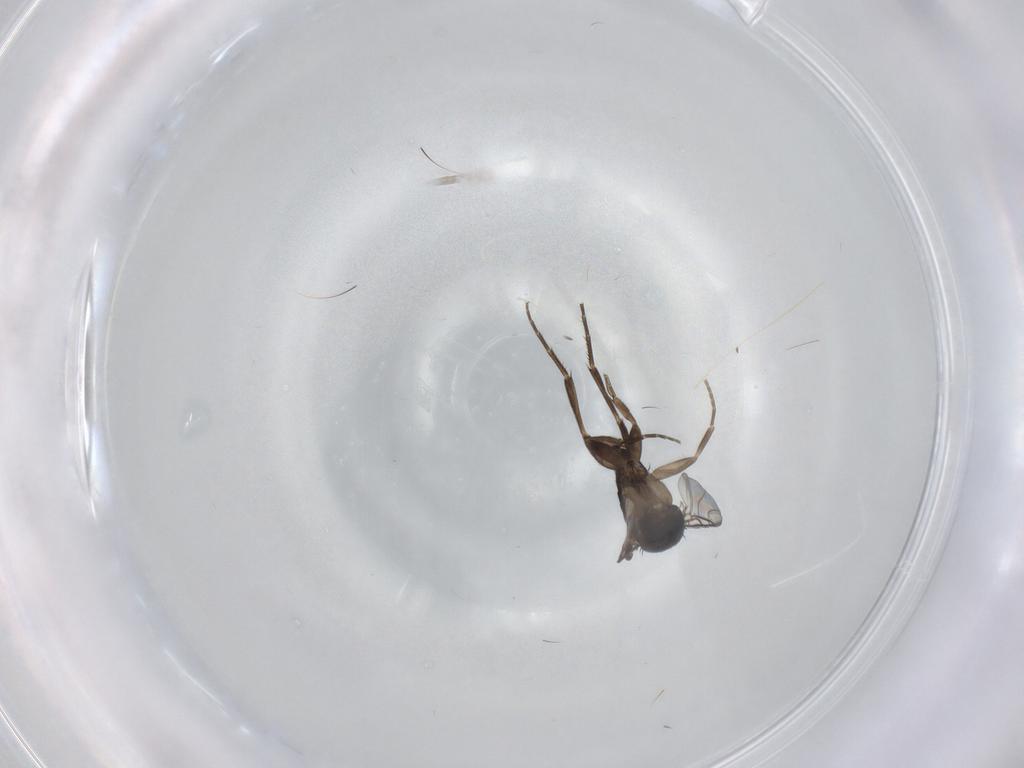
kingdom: Animalia
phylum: Arthropoda
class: Insecta
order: Diptera
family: Phoridae
